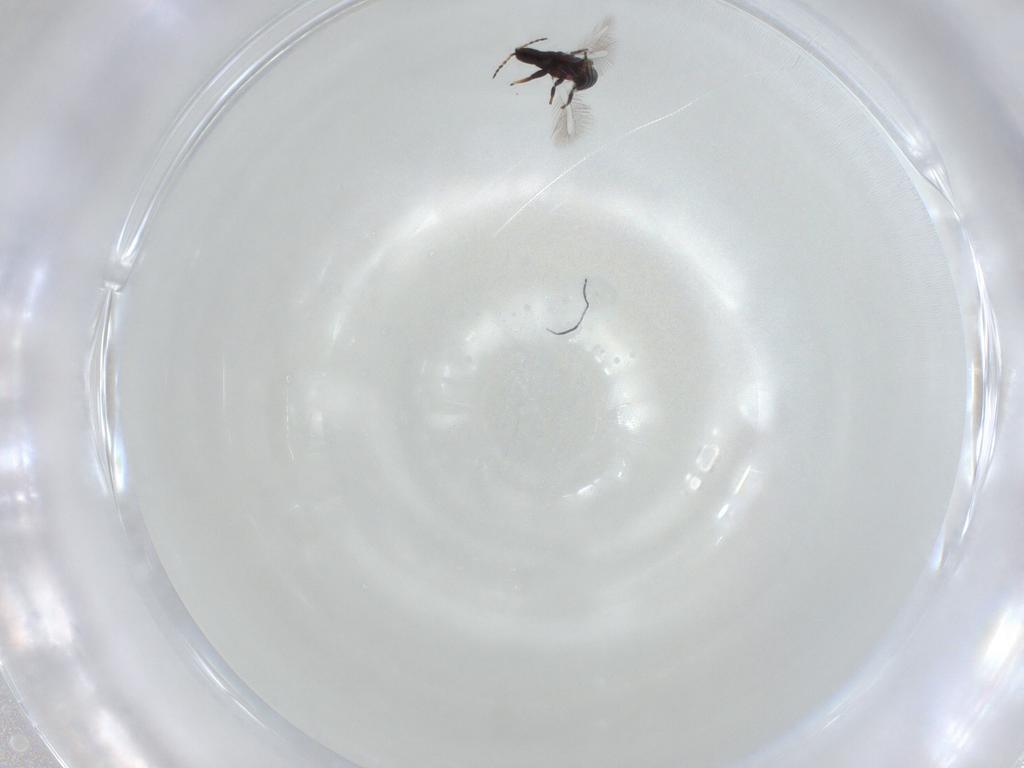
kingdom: Animalia
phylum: Arthropoda
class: Insecta
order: Thysanoptera
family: Phlaeothripidae
